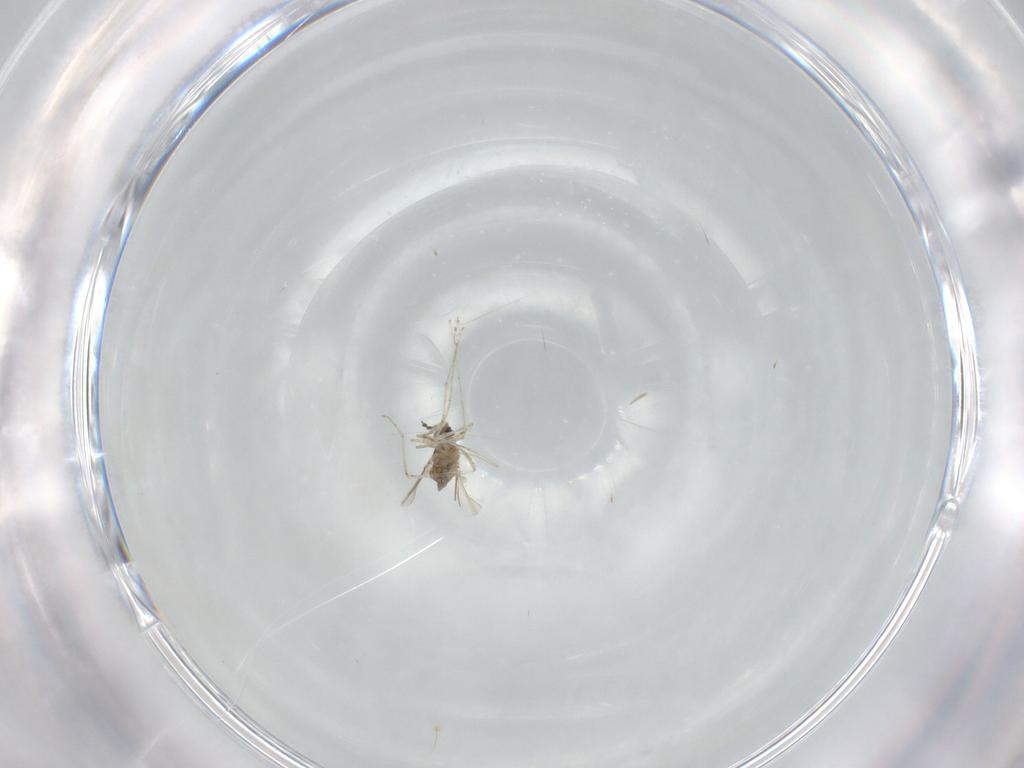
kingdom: Animalia
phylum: Arthropoda
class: Insecta
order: Diptera
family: Cecidomyiidae
